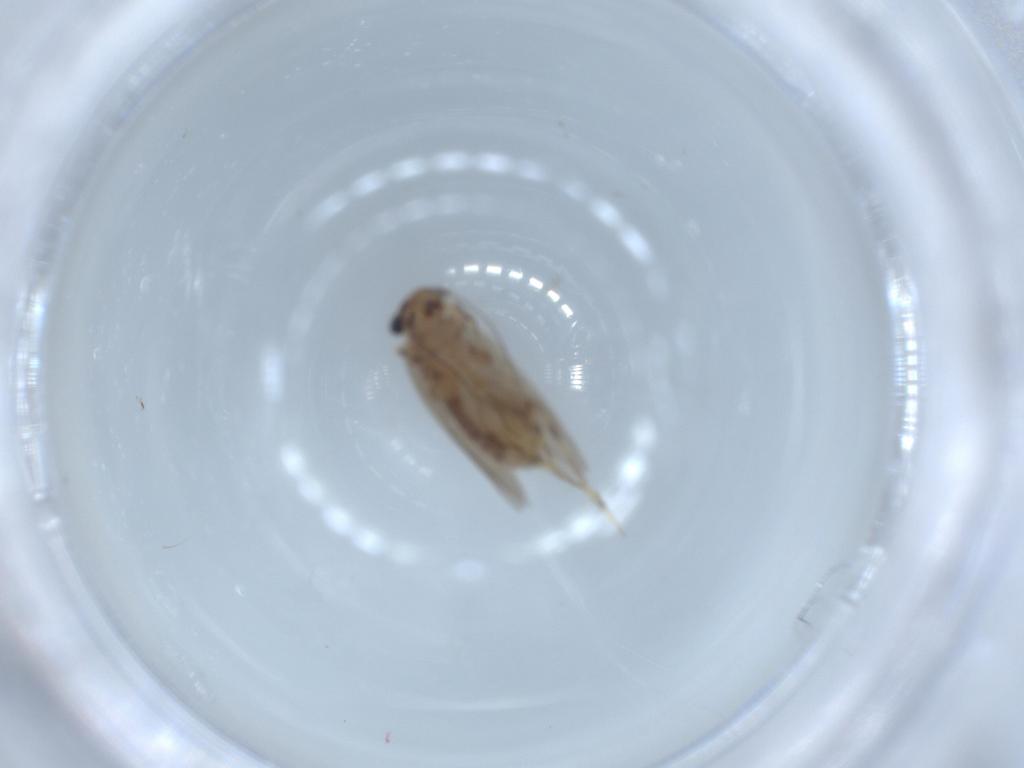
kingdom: Animalia
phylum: Arthropoda
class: Insecta
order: Psocodea
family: Lepidopsocidae
